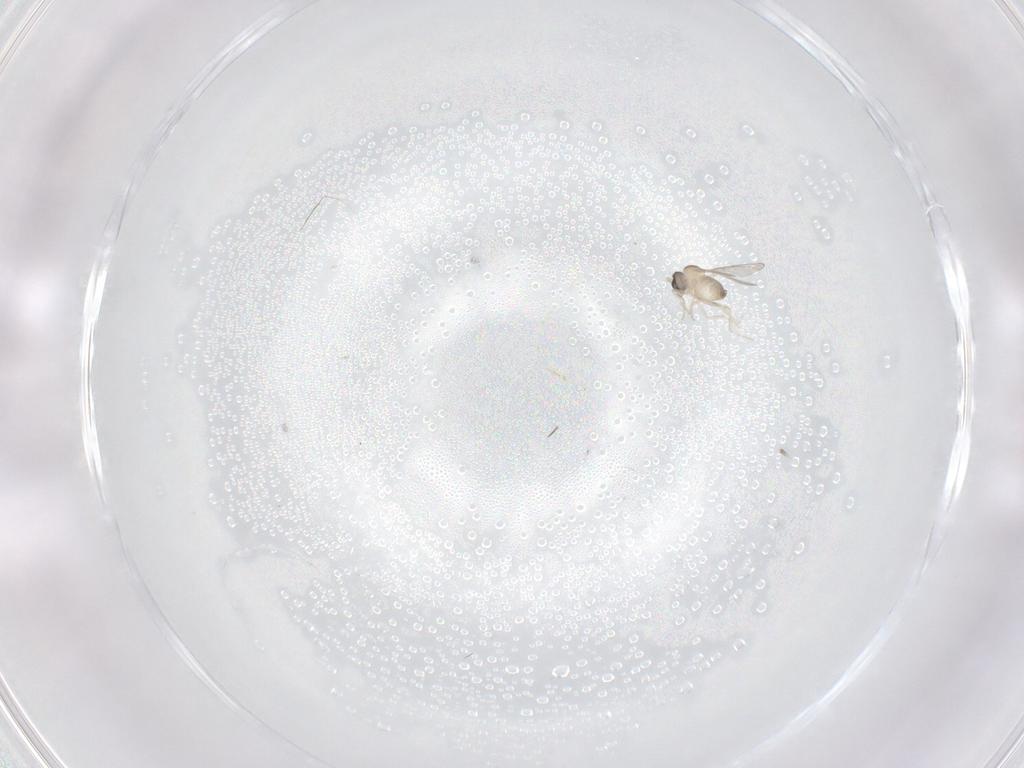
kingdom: Animalia
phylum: Arthropoda
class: Insecta
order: Diptera
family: Cecidomyiidae
